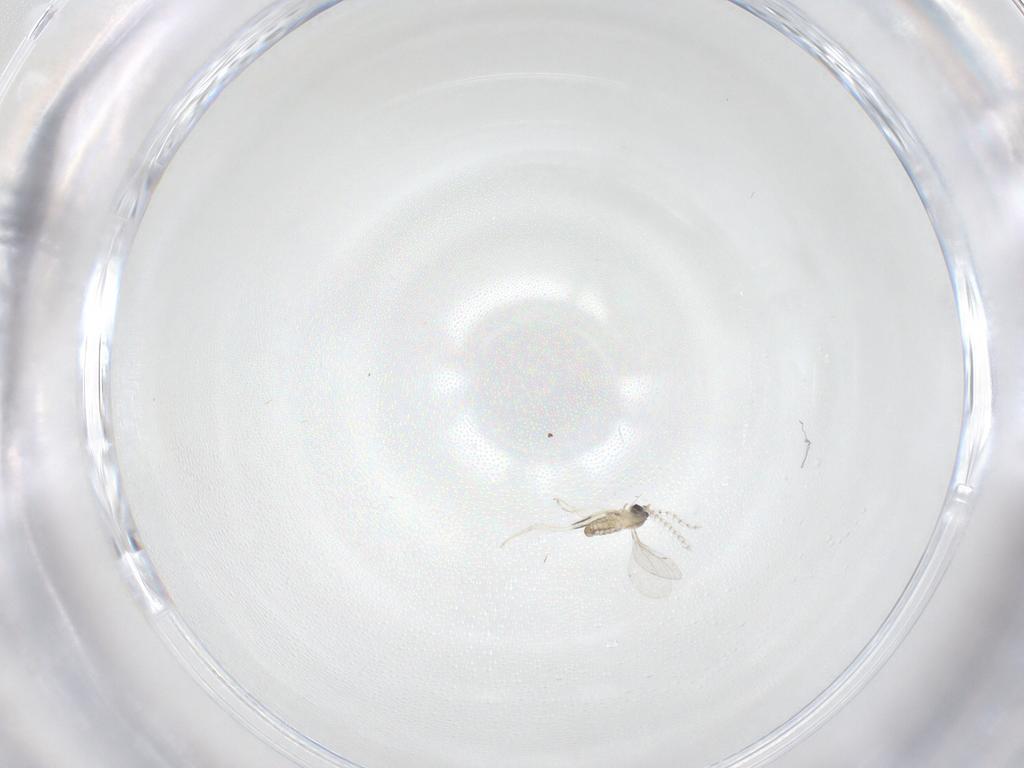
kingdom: Animalia
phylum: Arthropoda
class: Insecta
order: Diptera
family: Cecidomyiidae
